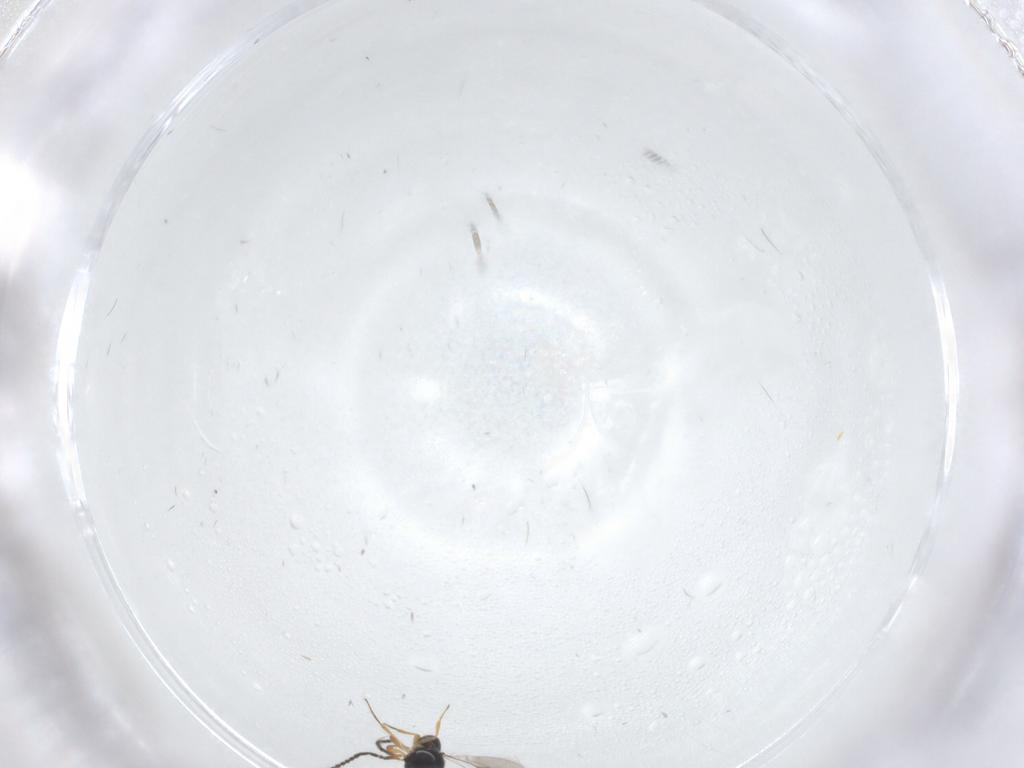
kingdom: Animalia
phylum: Arthropoda
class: Insecta
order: Hymenoptera
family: Scelionidae
